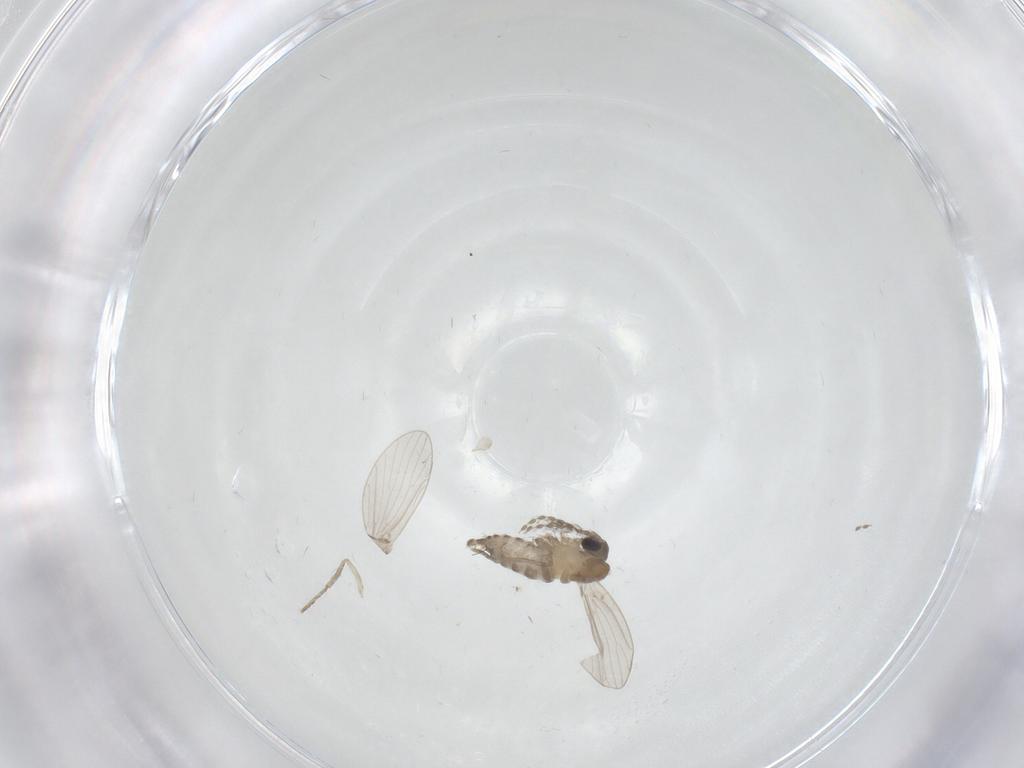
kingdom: Animalia
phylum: Arthropoda
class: Insecta
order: Diptera
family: Psychodidae
